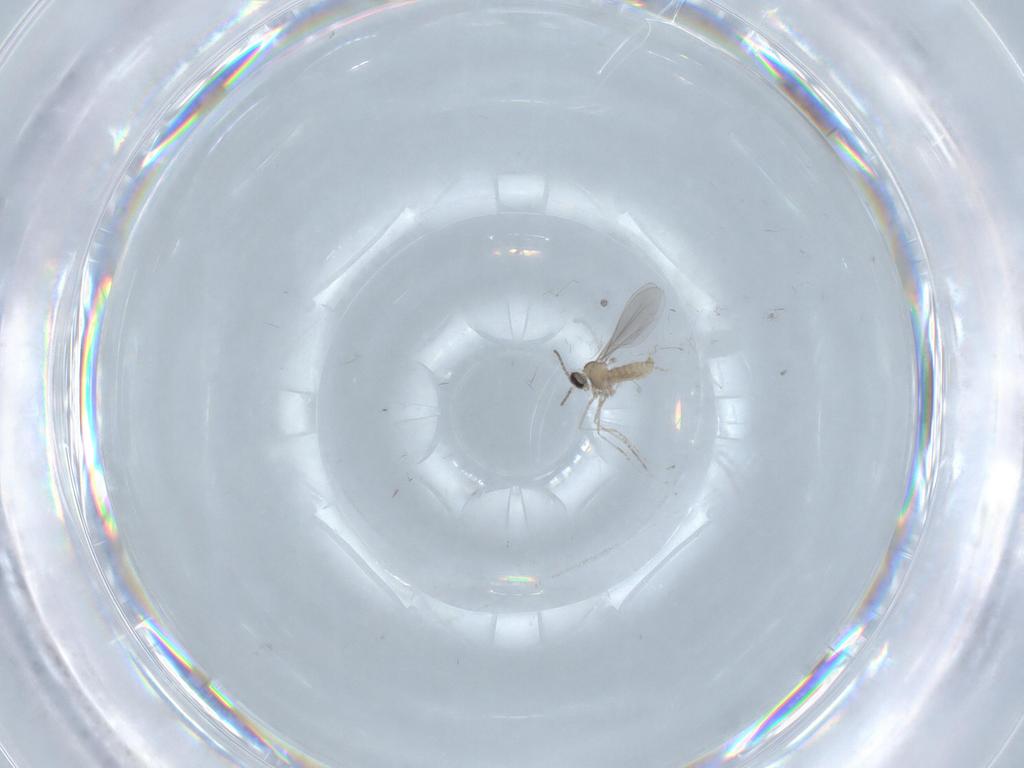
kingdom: Animalia
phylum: Arthropoda
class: Insecta
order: Diptera
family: Cecidomyiidae
